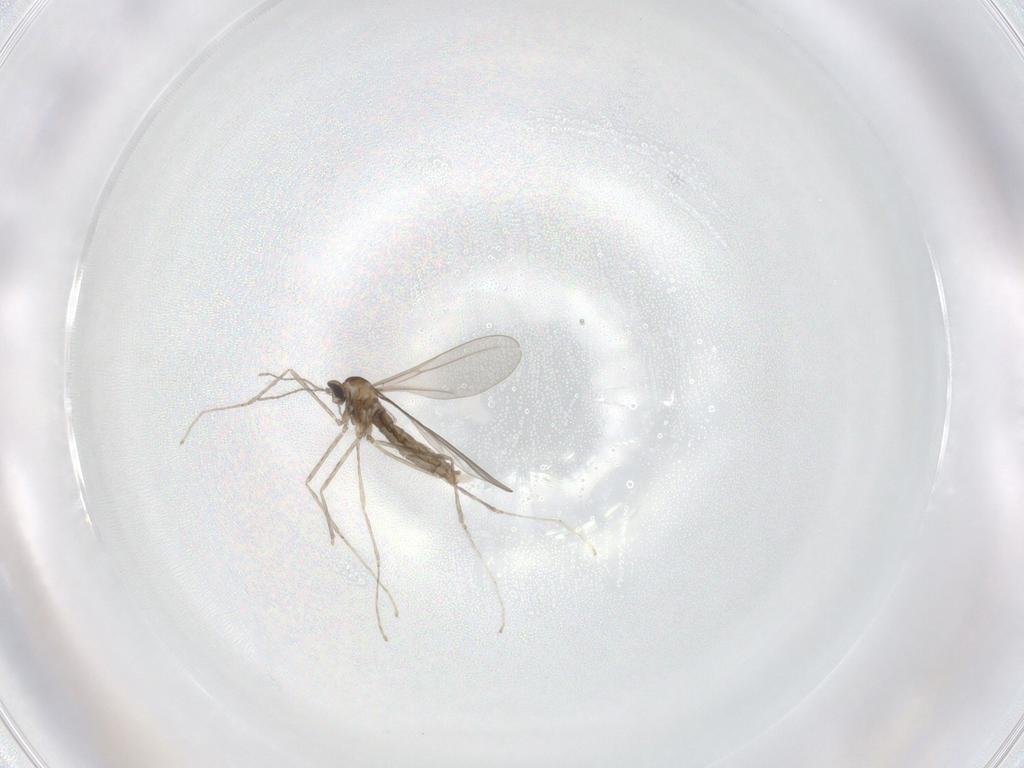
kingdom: Animalia
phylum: Arthropoda
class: Insecta
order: Diptera
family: Cecidomyiidae
